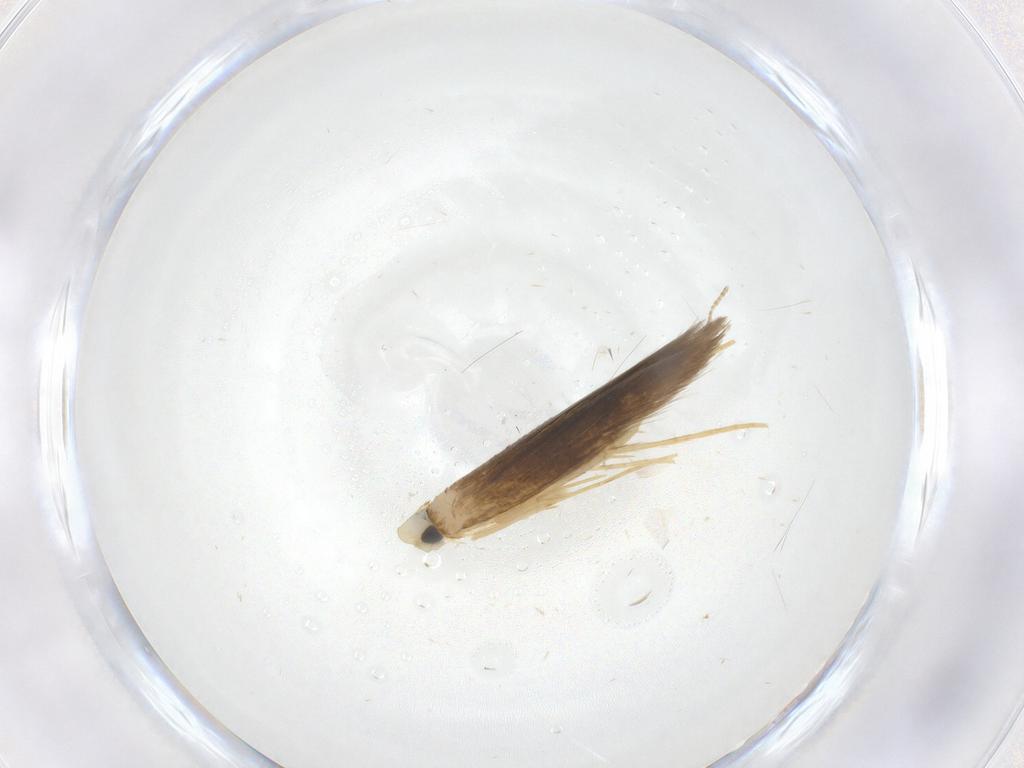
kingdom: Animalia
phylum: Arthropoda
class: Insecta
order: Lepidoptera
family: Psychidae
